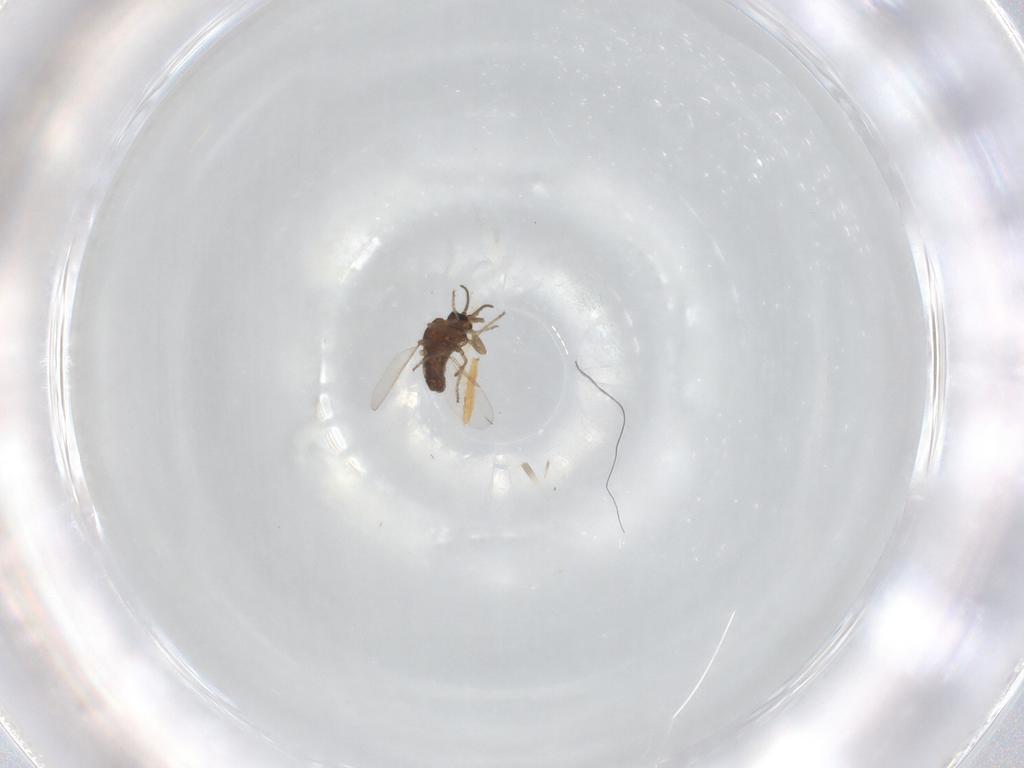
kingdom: Animalia
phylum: Arthropoda
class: Insecta
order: Diptera
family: Ceratopogonidae
